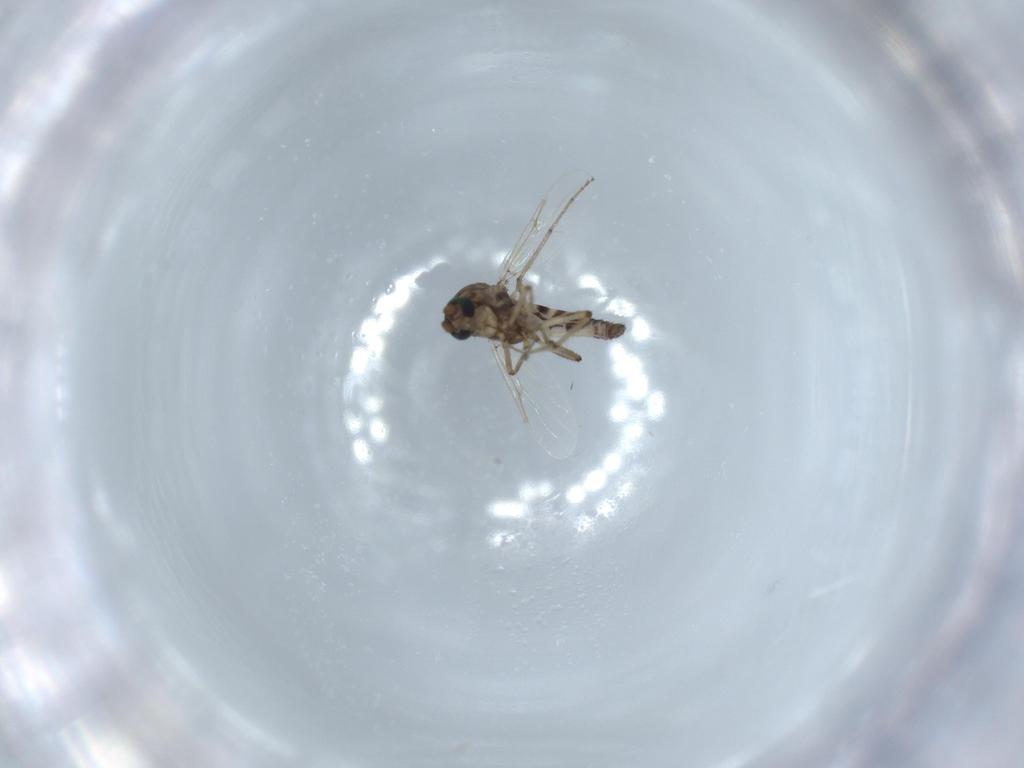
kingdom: Animalia
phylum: Arthropoda
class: Insecta
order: Diptera
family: Ceratopogonidae
